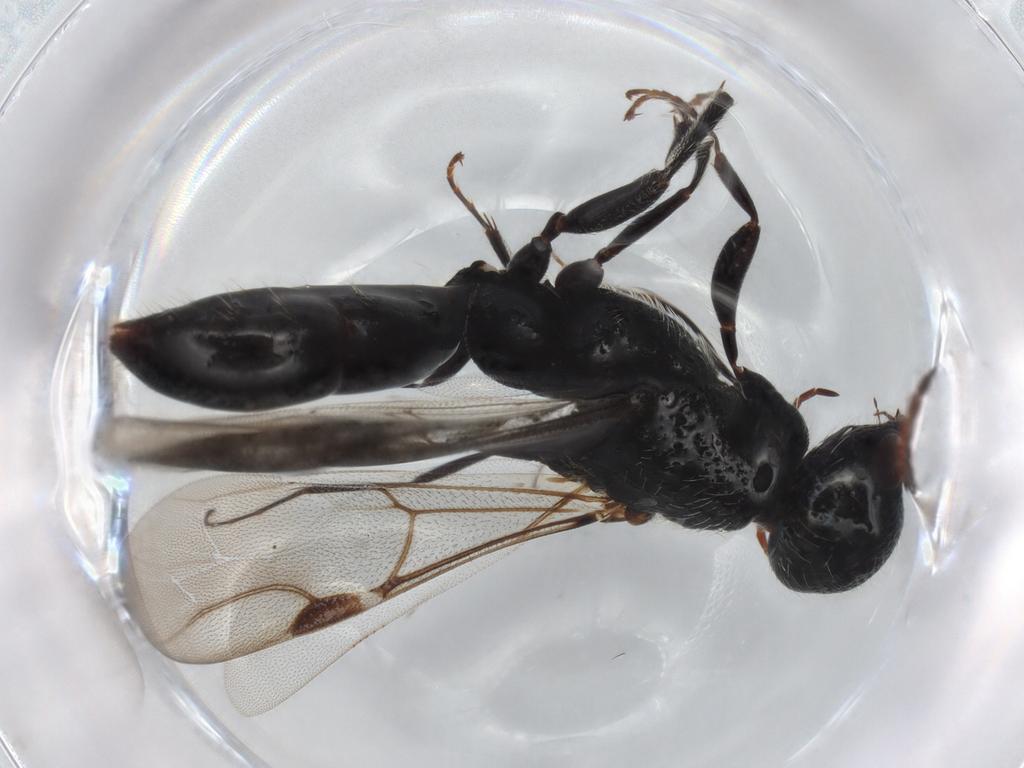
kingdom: Animalia
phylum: Arthropoda
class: Insecta
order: Hymenoptera
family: Bethylidae
